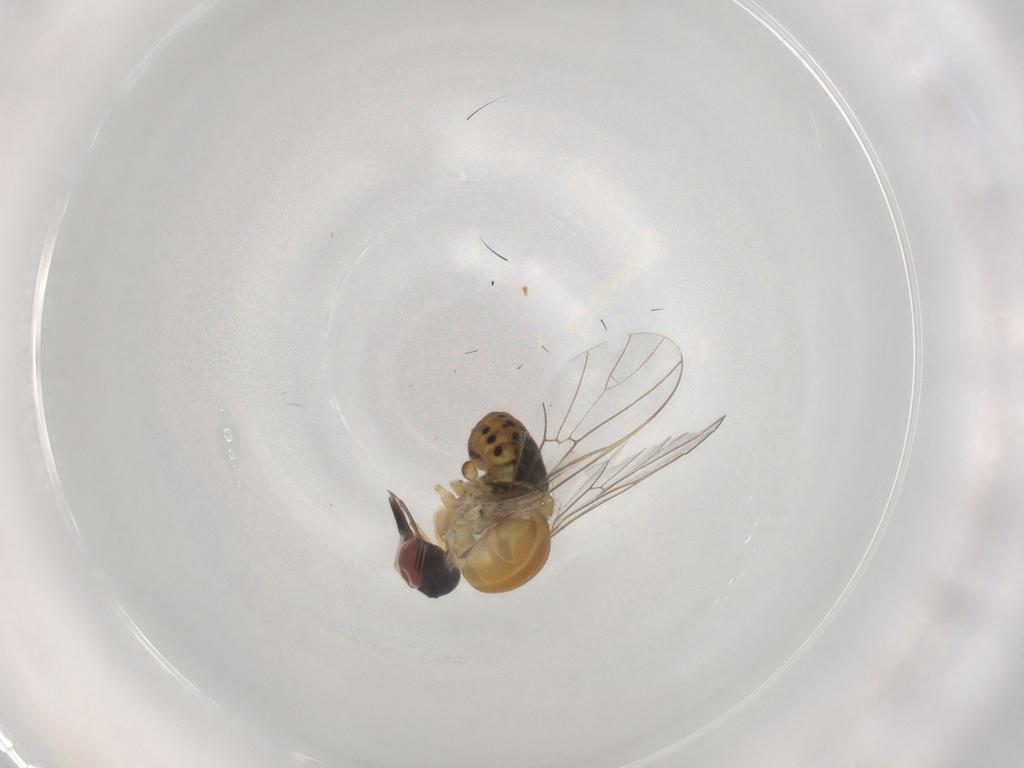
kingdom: Animalia
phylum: Arthropoda
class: Insecta
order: Diptera
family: Bombyliidae
